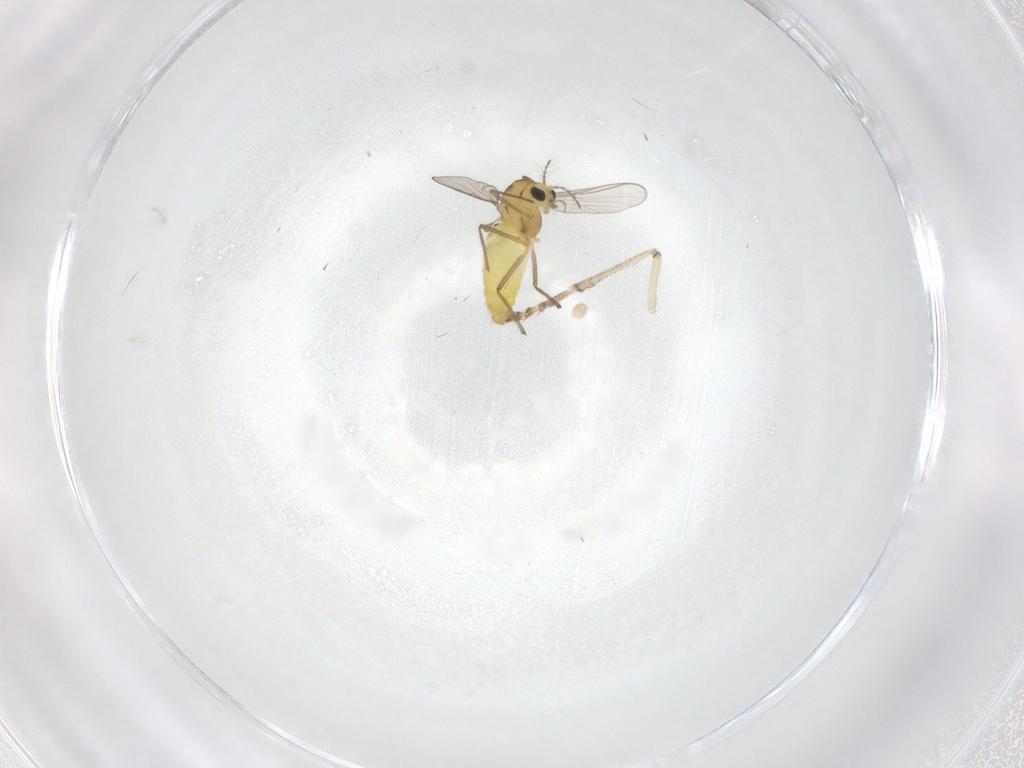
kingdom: Animalia
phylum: Arthropoda
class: Insecta
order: Diptera
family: Chironomidae
